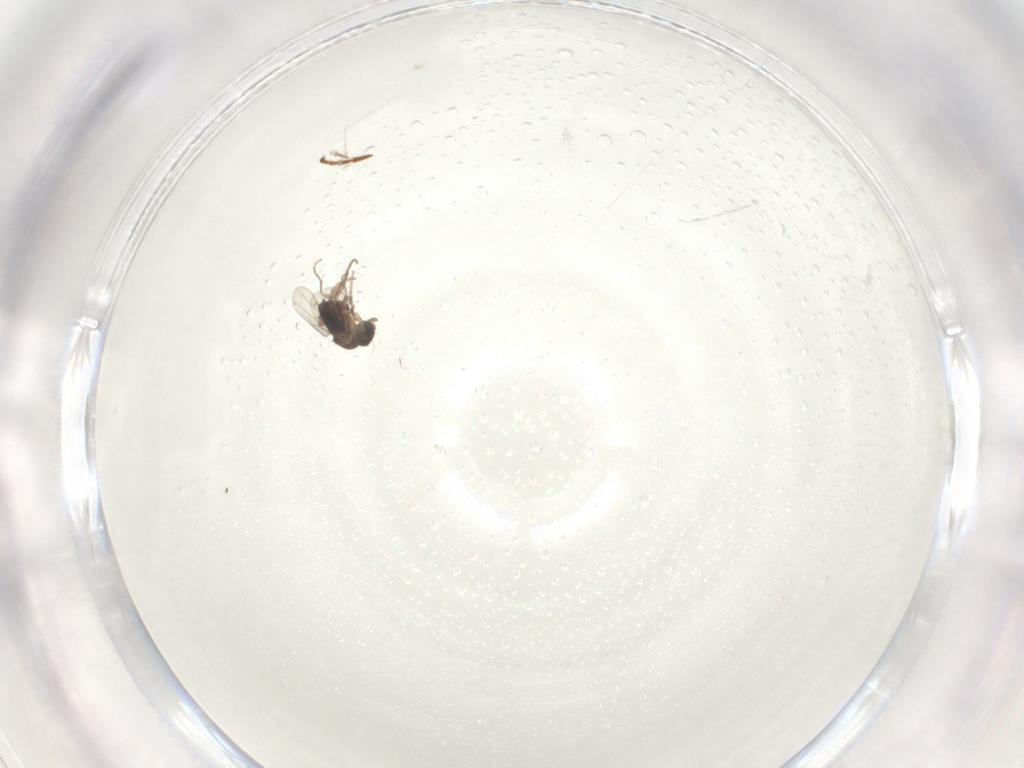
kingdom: Animalia
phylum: Arthropoda
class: Insecta
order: Diptera
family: Phoridae
